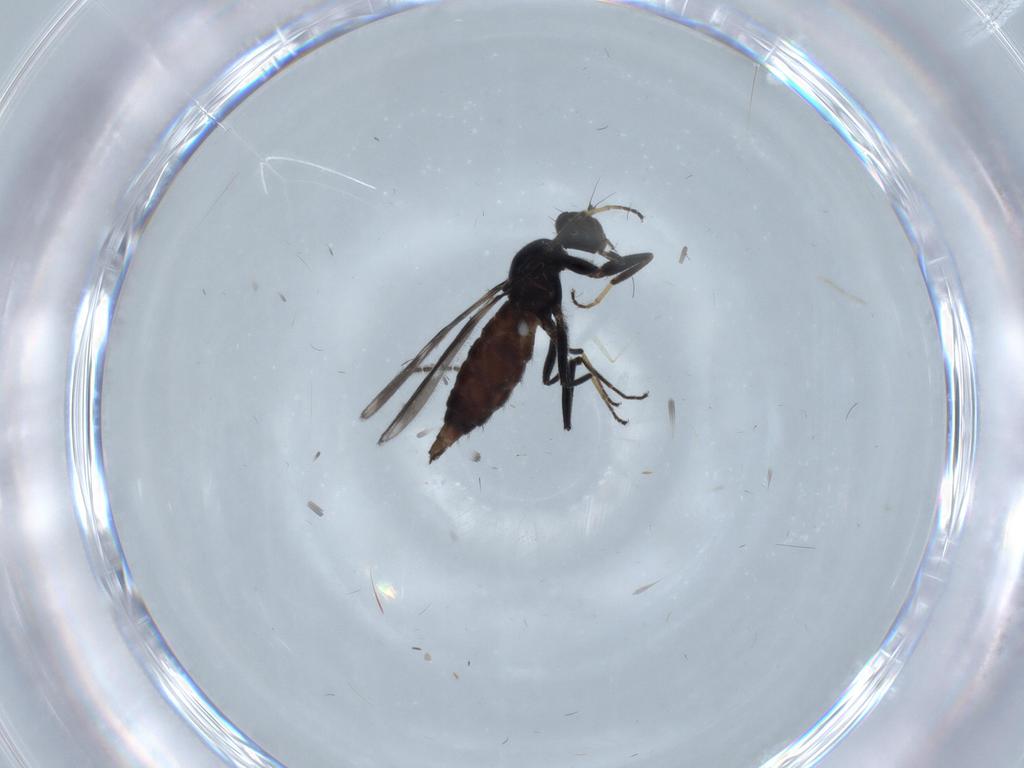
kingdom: Animalia
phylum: Arthropoda
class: Insecta
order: Diptera
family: Hybotidae
